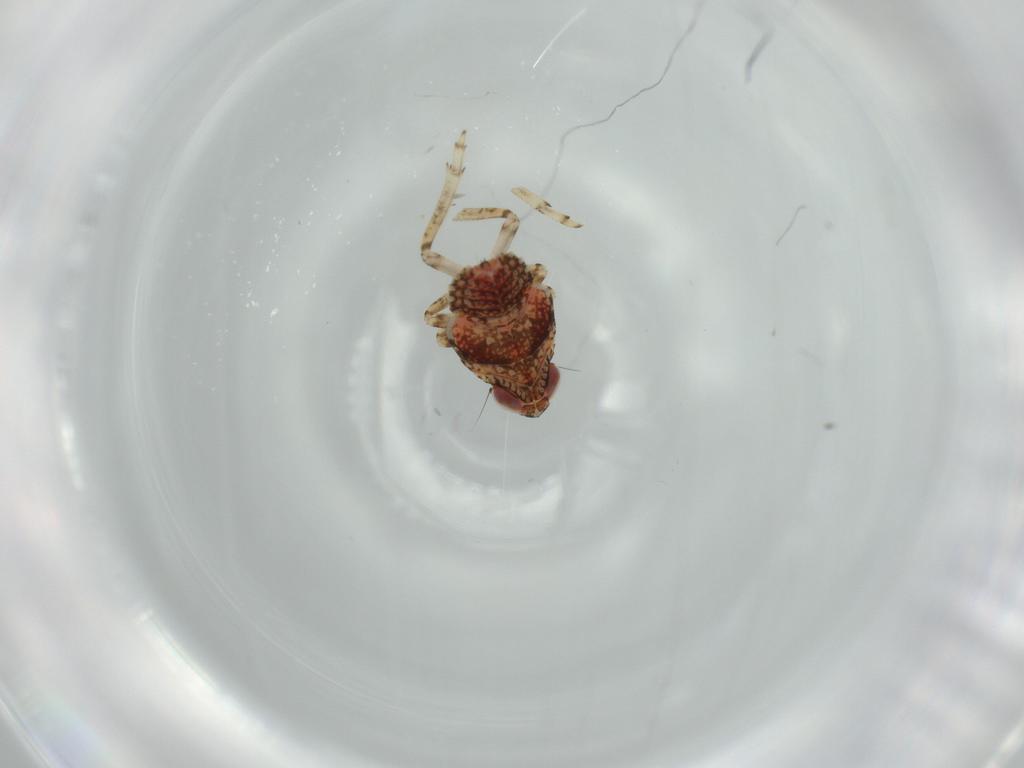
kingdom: Animalia
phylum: Arthropoda
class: Insecta
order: Hemiptera
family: Issidae
